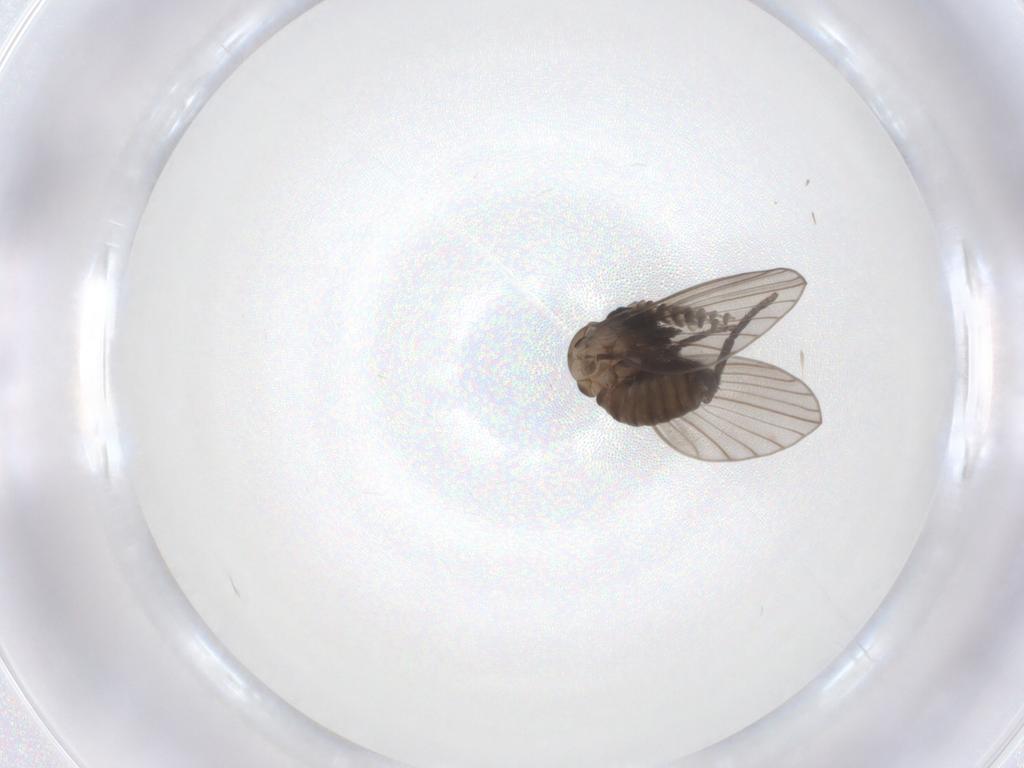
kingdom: Animalia
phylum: Arthropoda
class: Insecta
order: Diptera
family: Cecidomyiidae
